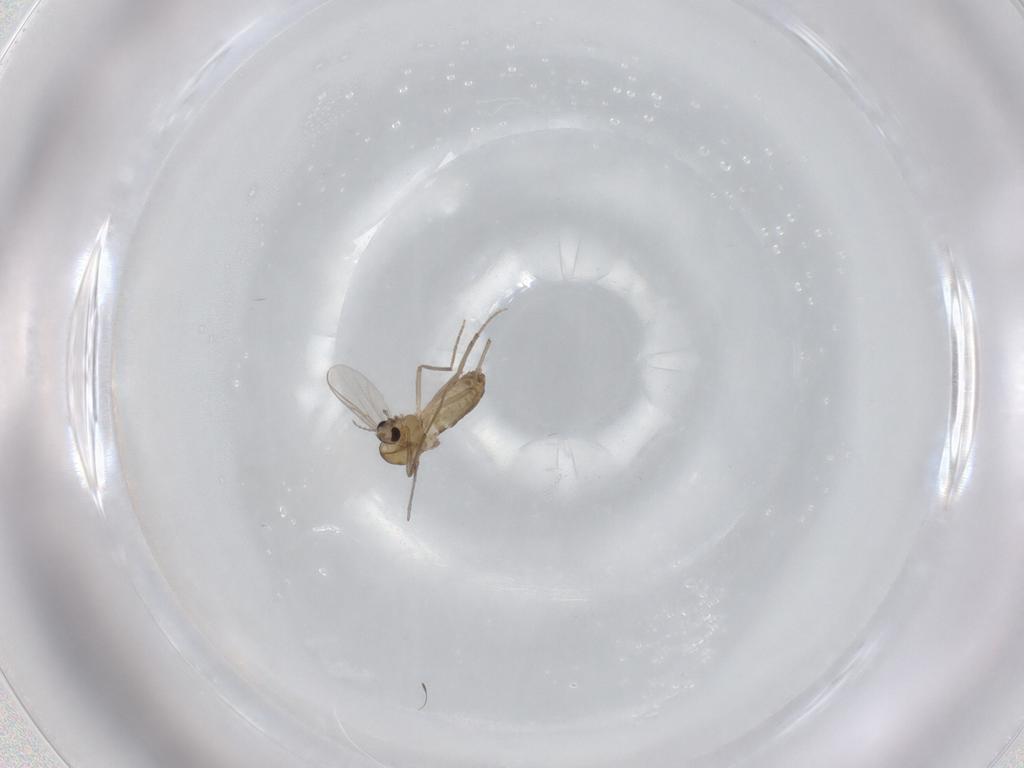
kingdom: Animalia
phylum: Arthropoda
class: Insecta
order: Diptera
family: Chironomidae
